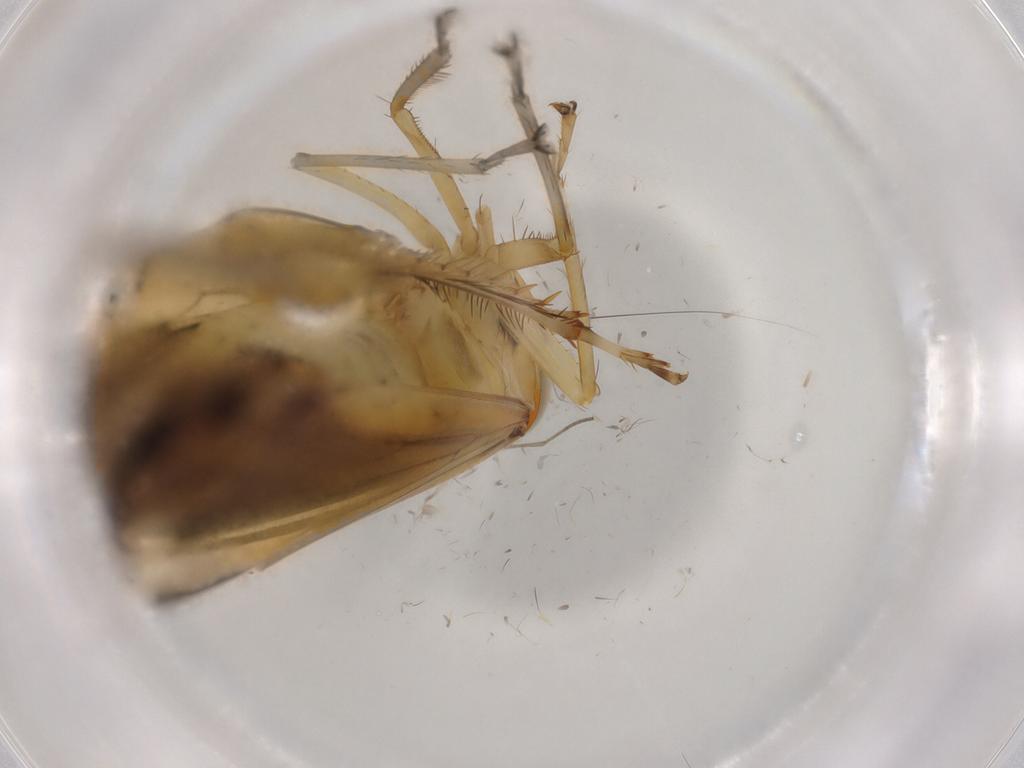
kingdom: Animalia
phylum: Arthropoda
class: Insecta
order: Hemiptera
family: Cicadellidae
